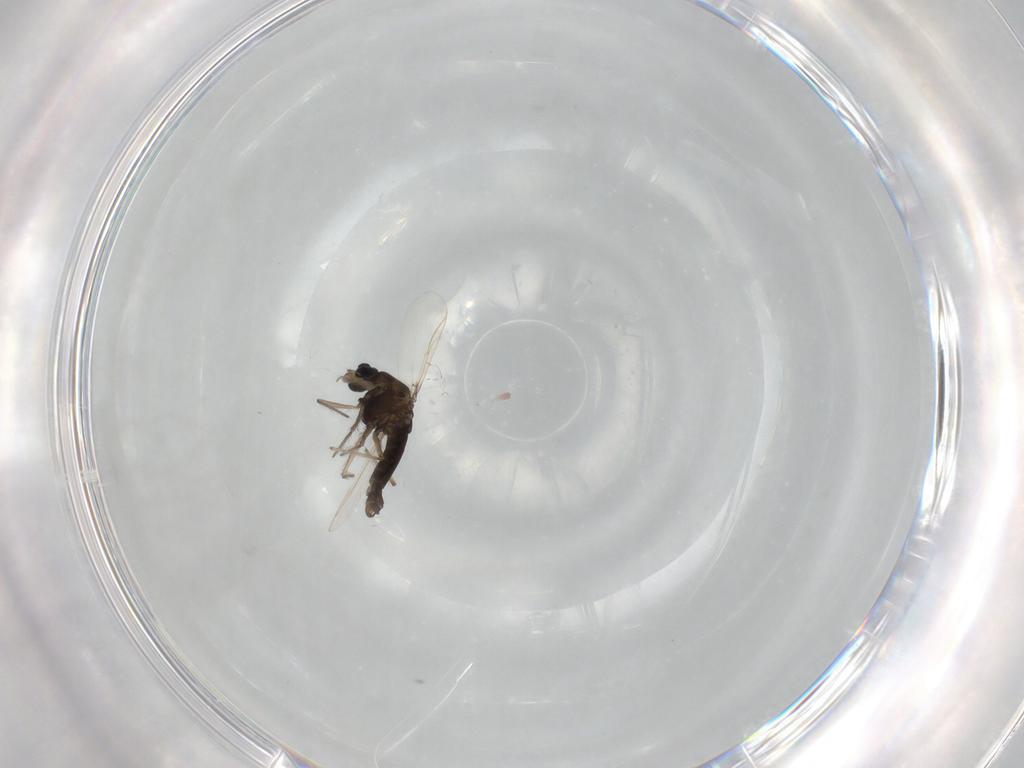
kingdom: Animalia
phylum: Arthropoda
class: Insecta
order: Diptera
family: Chironomidae
